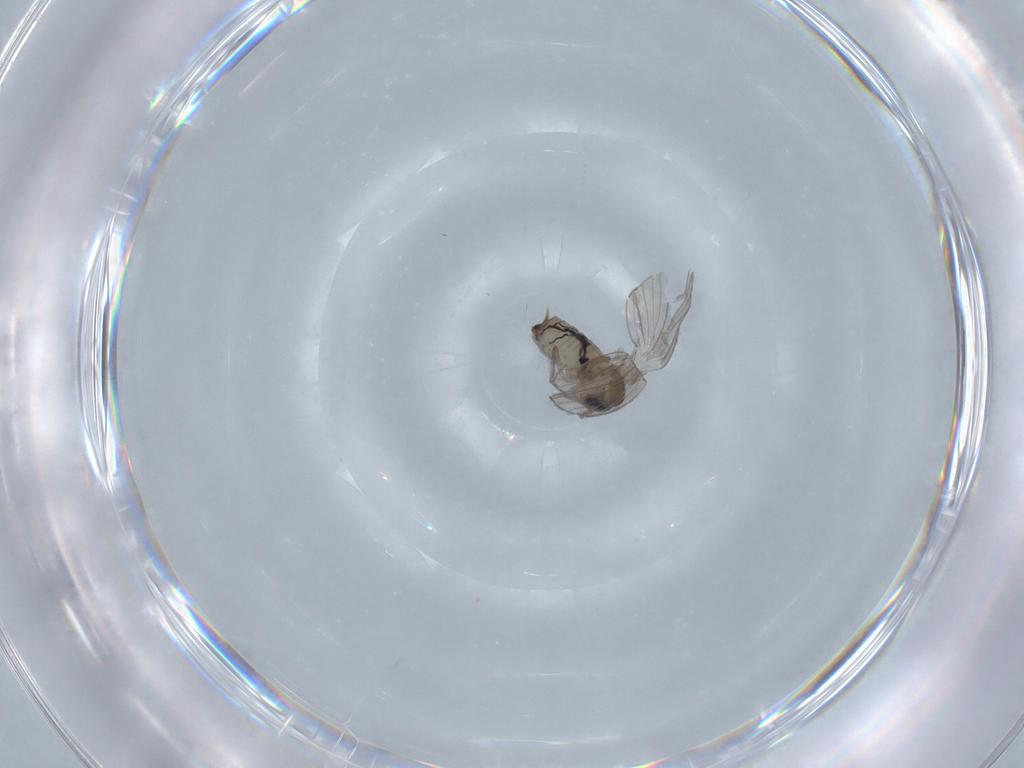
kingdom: Animalia
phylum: Arthropoda
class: Insecta
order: Diptera
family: Psychodidae
